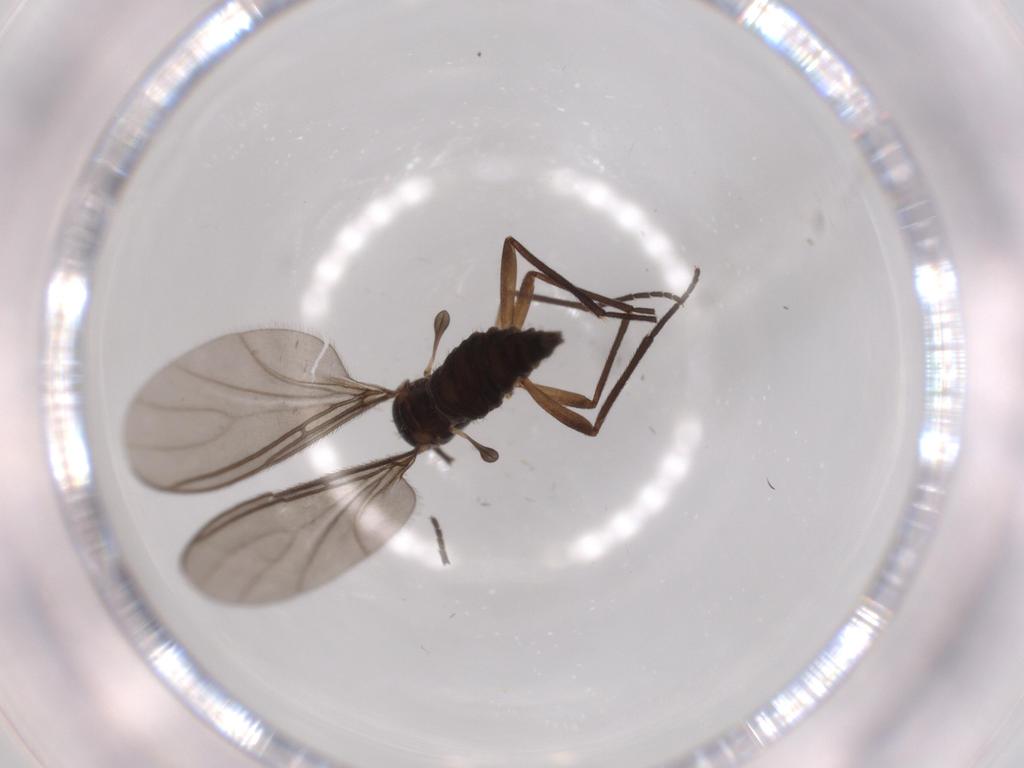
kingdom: Animalia
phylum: Arthropoda
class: Insecta
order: Diptera
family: Sciaridae
